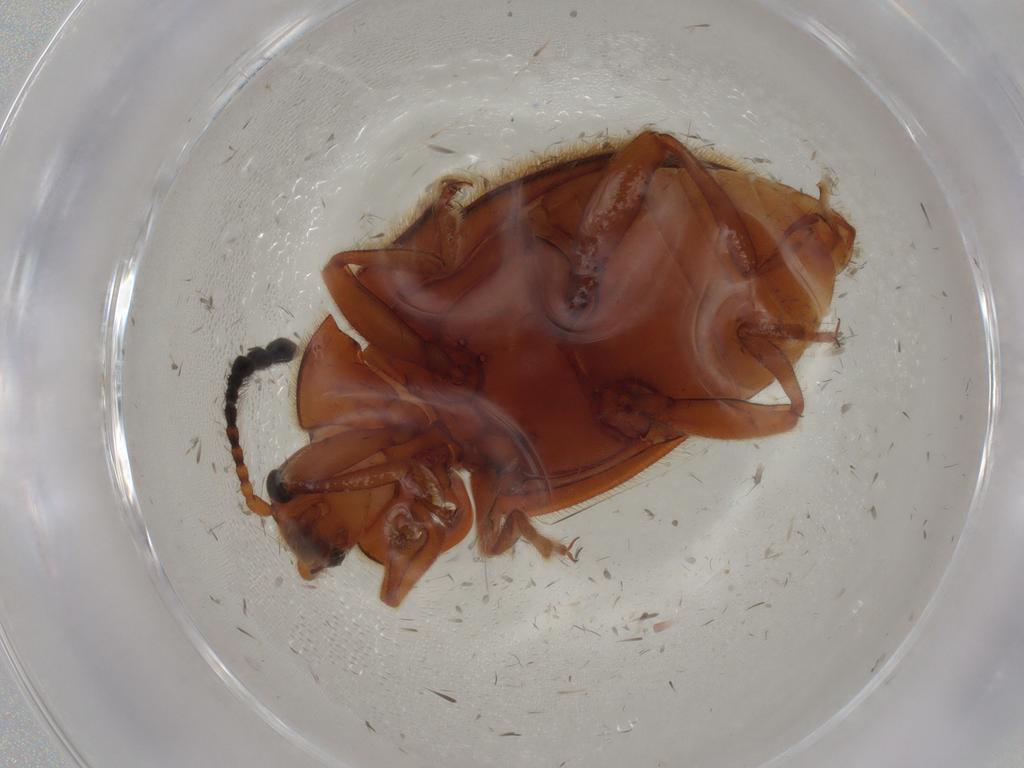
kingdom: Animalia
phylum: Arthropoda
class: Insecta
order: Coleoptera
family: Endomychidae
